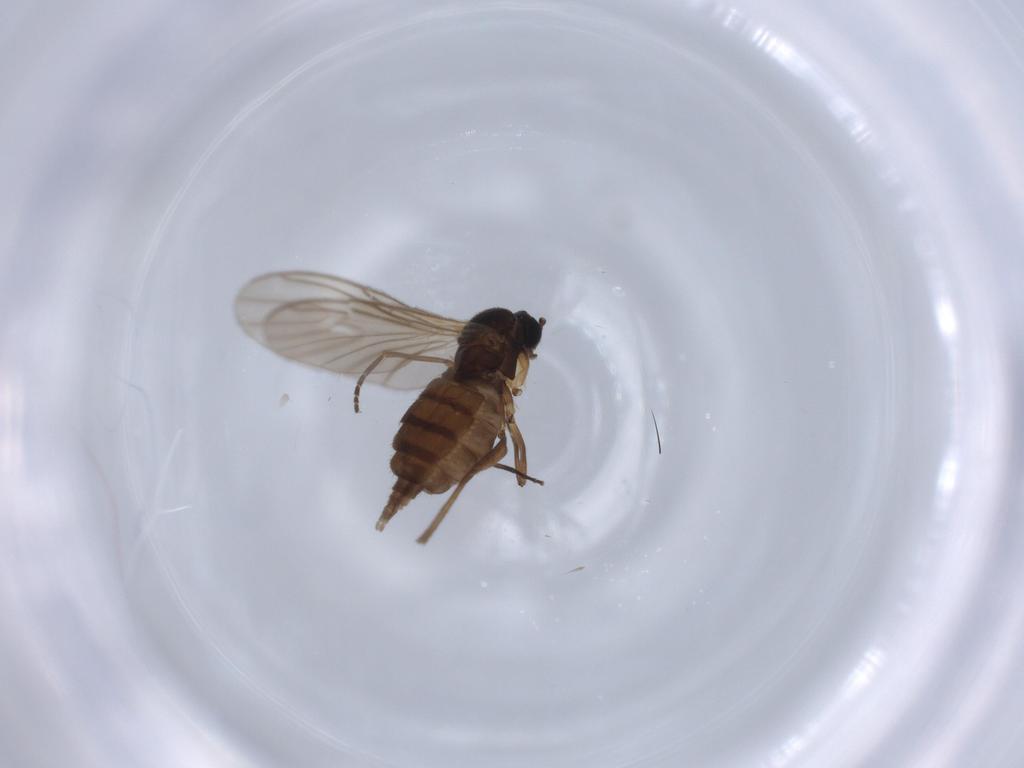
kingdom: Animalia
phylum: Arthropoda
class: Insecta
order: Diptera
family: Sciaridae
